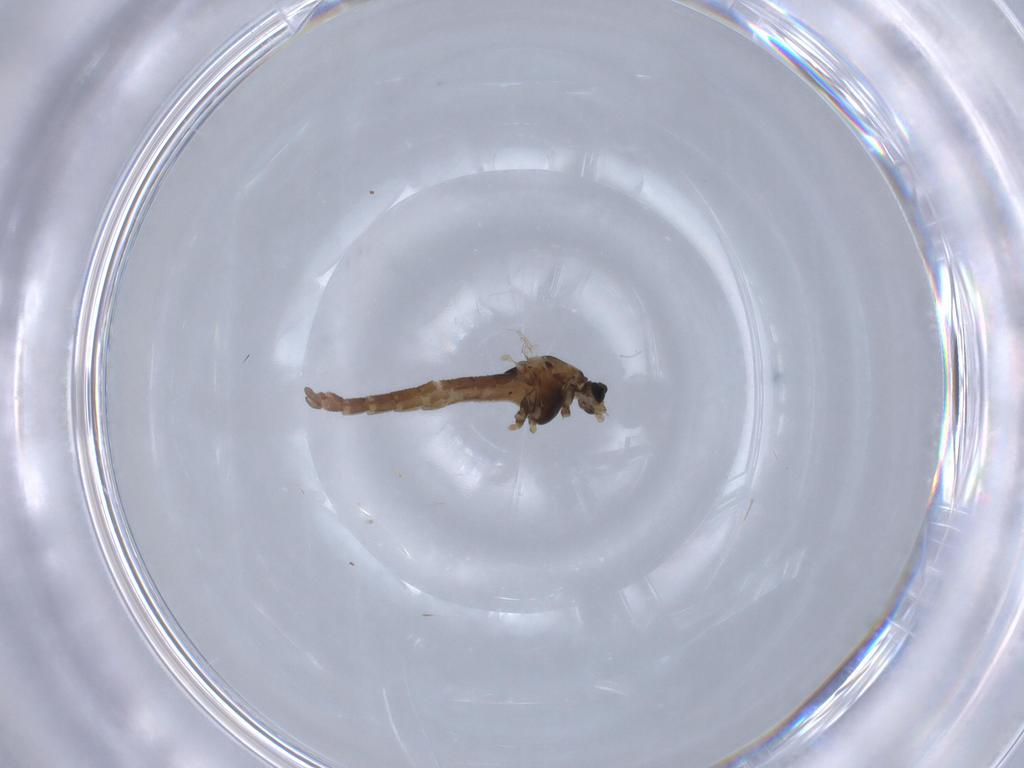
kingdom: Animalia
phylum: Arthropoda
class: Insecta
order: Diptera
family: Chironomidae
